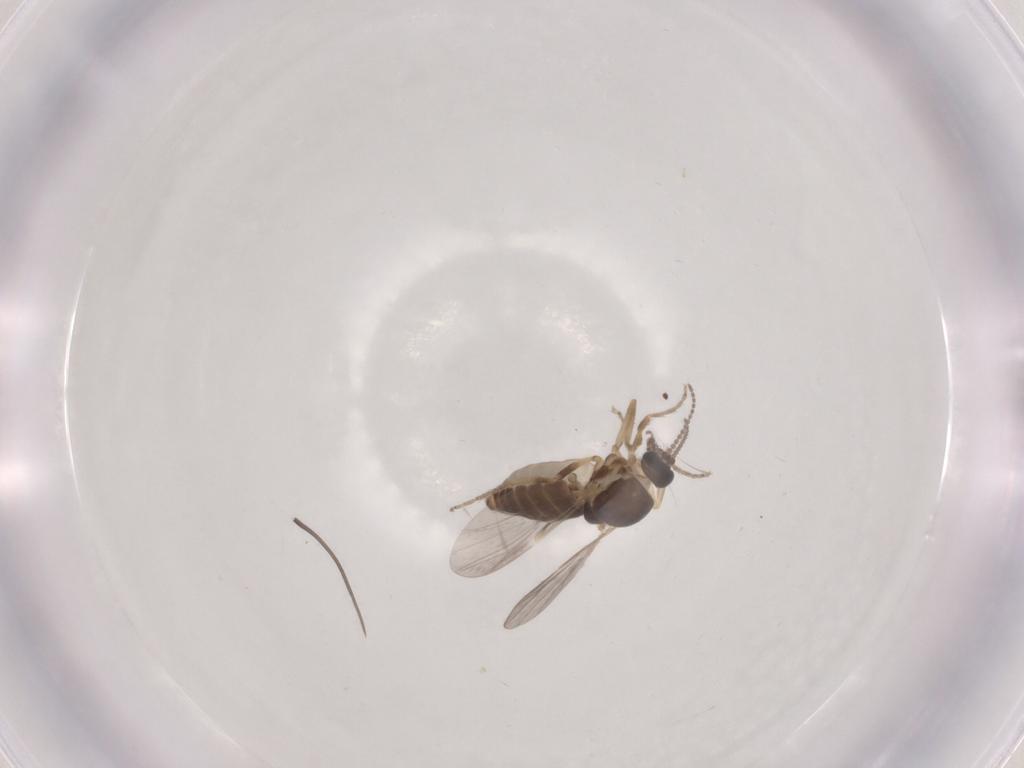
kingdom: Animalia
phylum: Arthropoda
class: Insecta
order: Diptera
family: Ceratopogonidae
